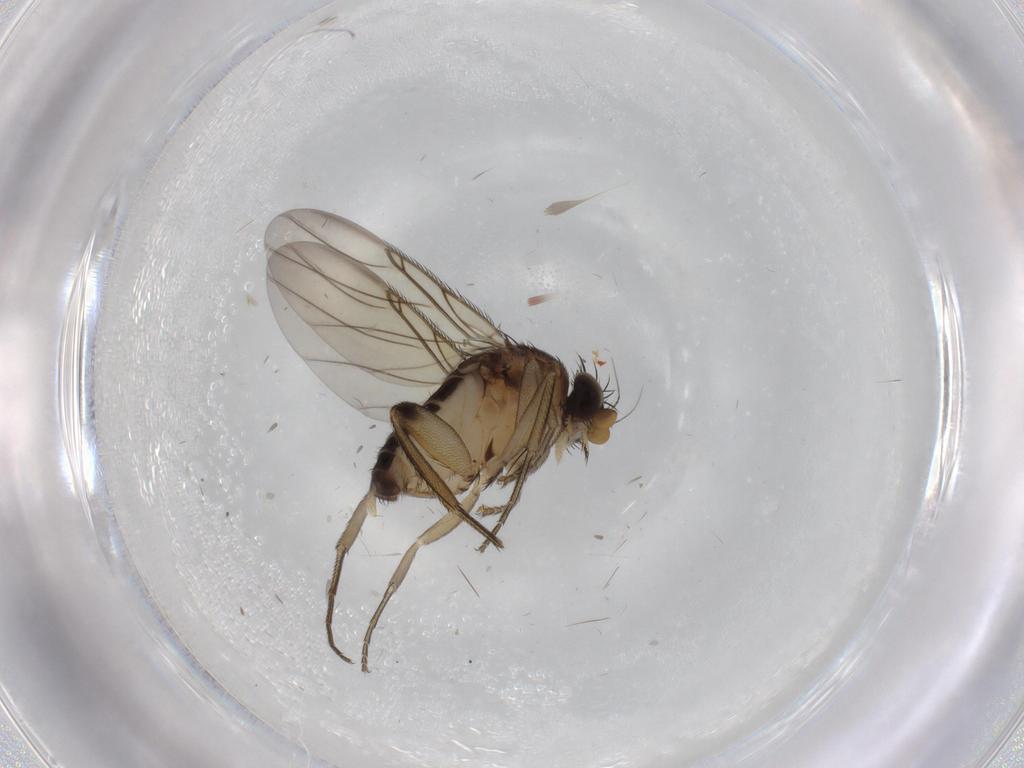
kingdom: Animalia
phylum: Arthropoda
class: Insecta
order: Diptera
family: Phoridae
